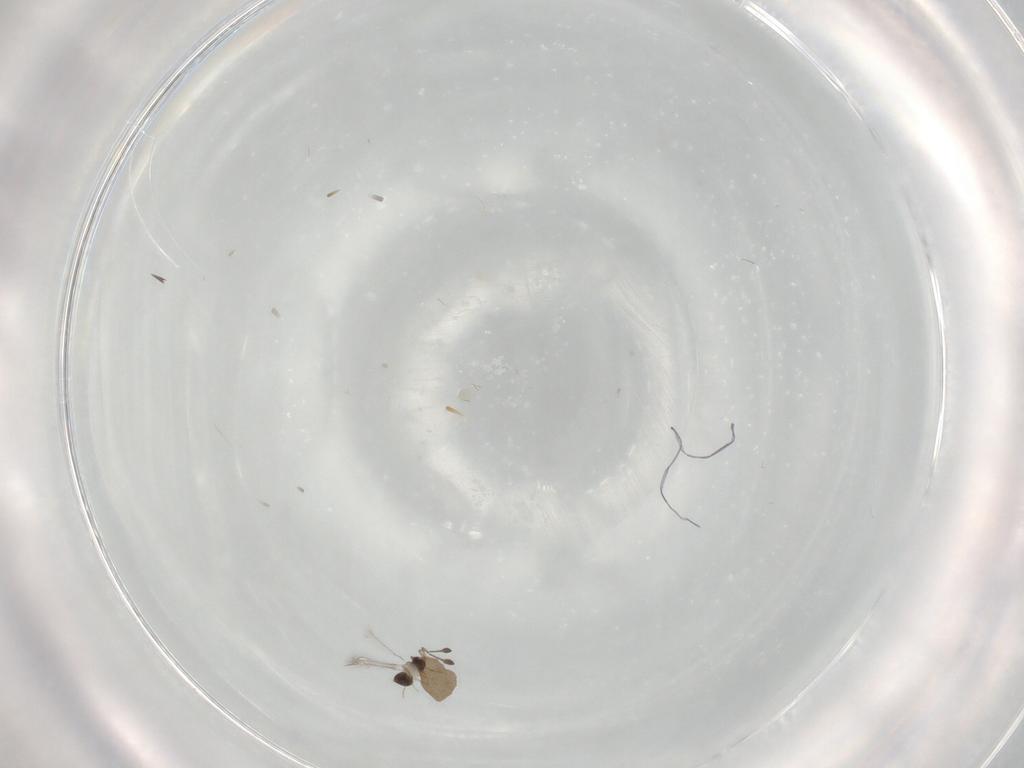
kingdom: Animalia
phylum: Arthropoda
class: Insecta
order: Hymenoptera
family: Mymaridae
